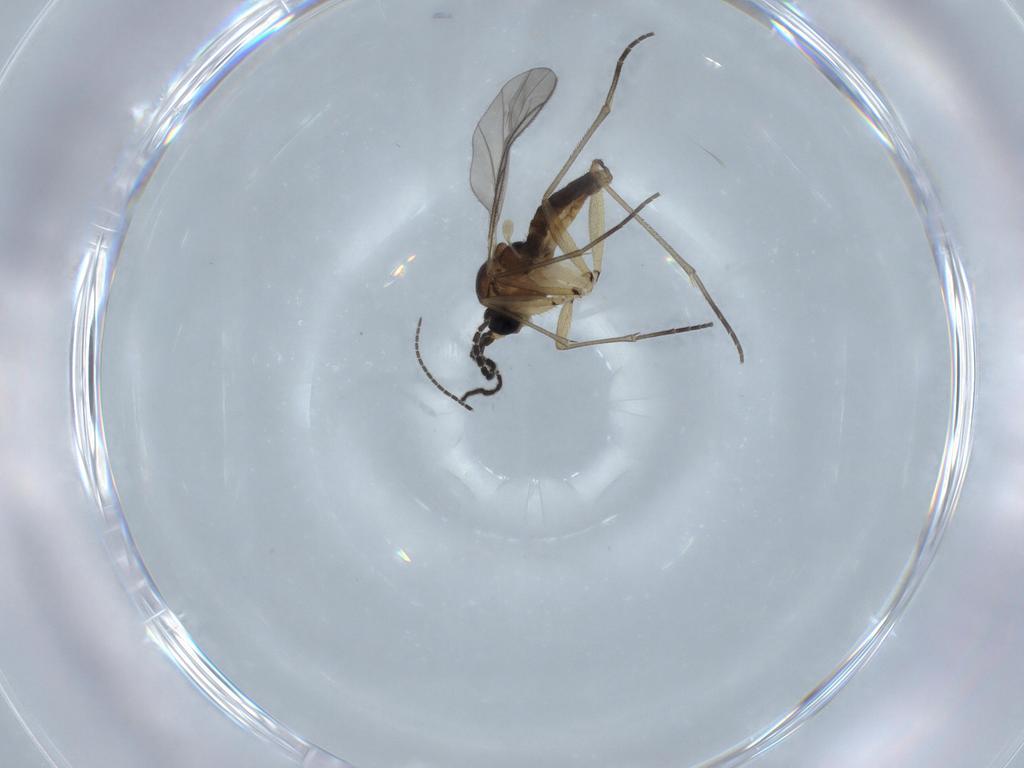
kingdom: Animalia
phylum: Arthropoda
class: Insecta
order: Diptera
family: Sciaridae
